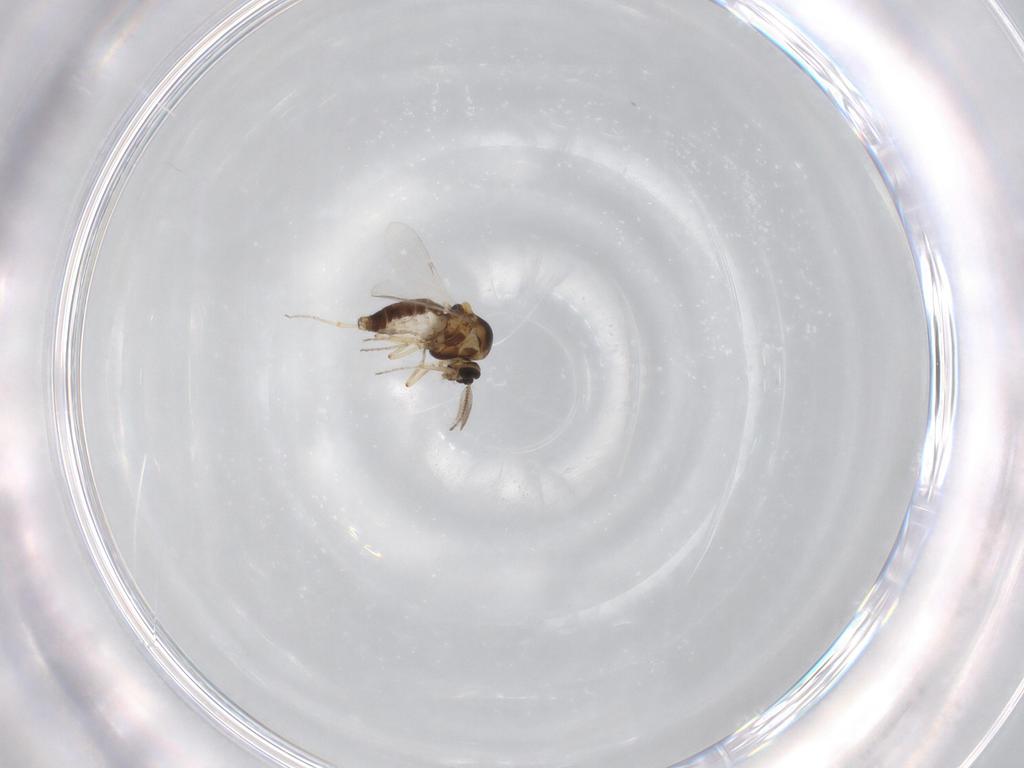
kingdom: Animalia
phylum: Arthropoda
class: Insecta
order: Diptera
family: Ceratopogonidae
